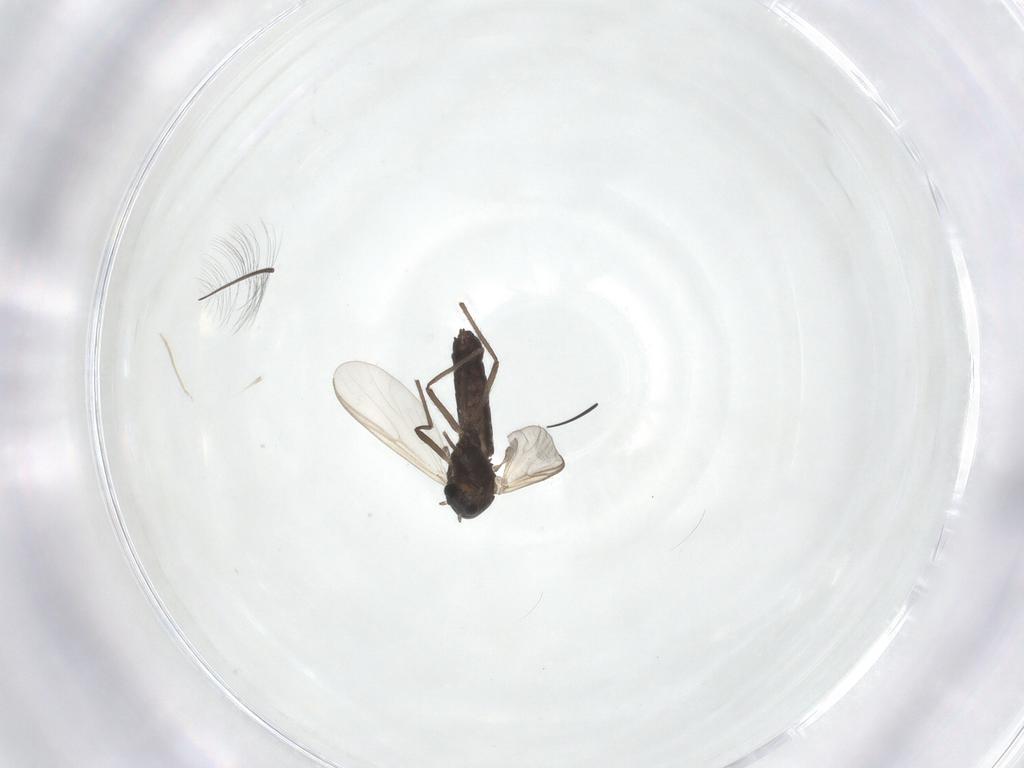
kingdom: Animalia
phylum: Arthropoda
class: Insecta
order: Diptera
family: Chironomidae
